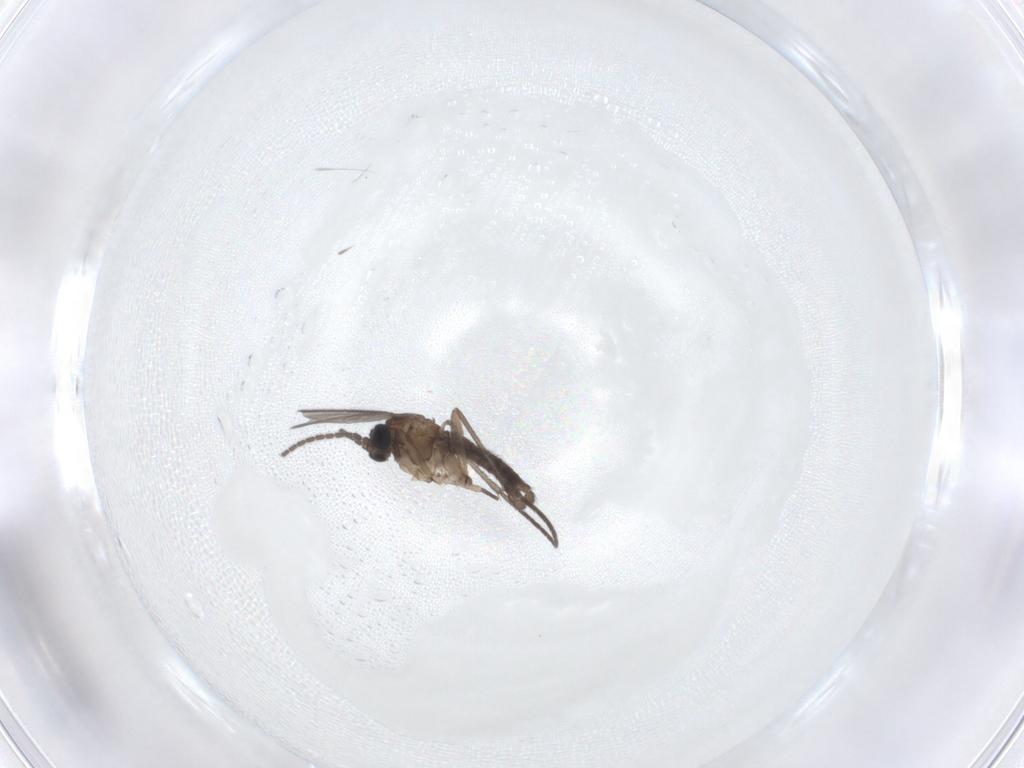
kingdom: Animalia
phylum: Arthropoda
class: Insecta
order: Diptera
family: Sciaridae
